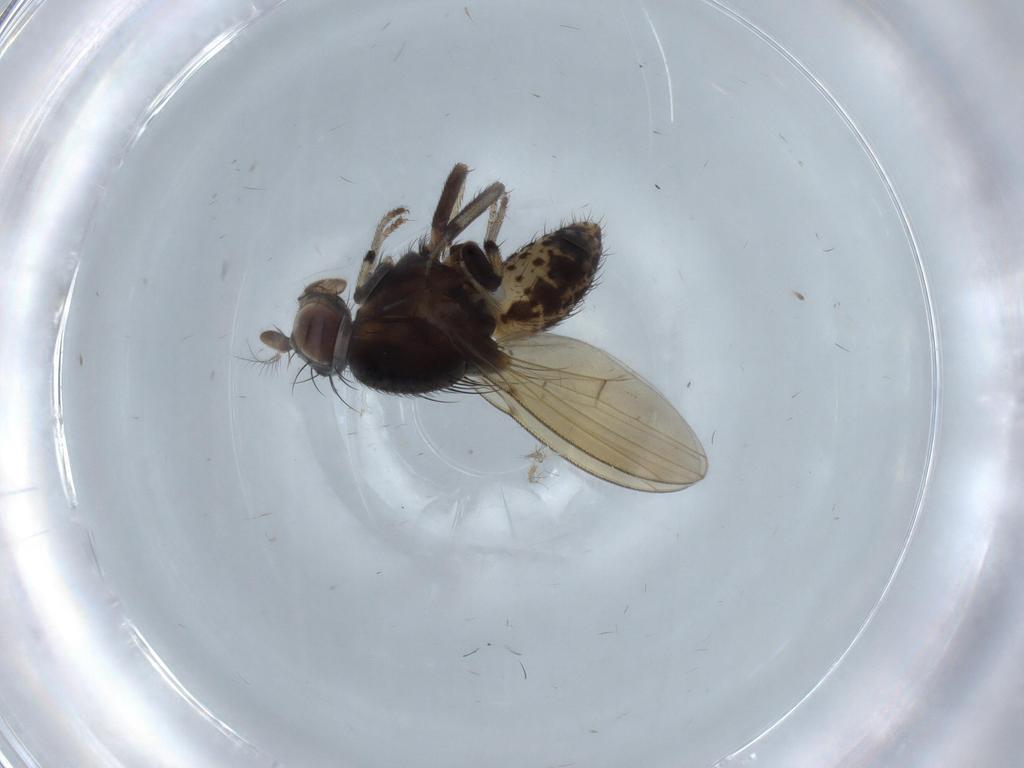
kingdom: Animalia
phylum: Arthropoda
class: Insecta
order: Diptera
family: Chironomidae
